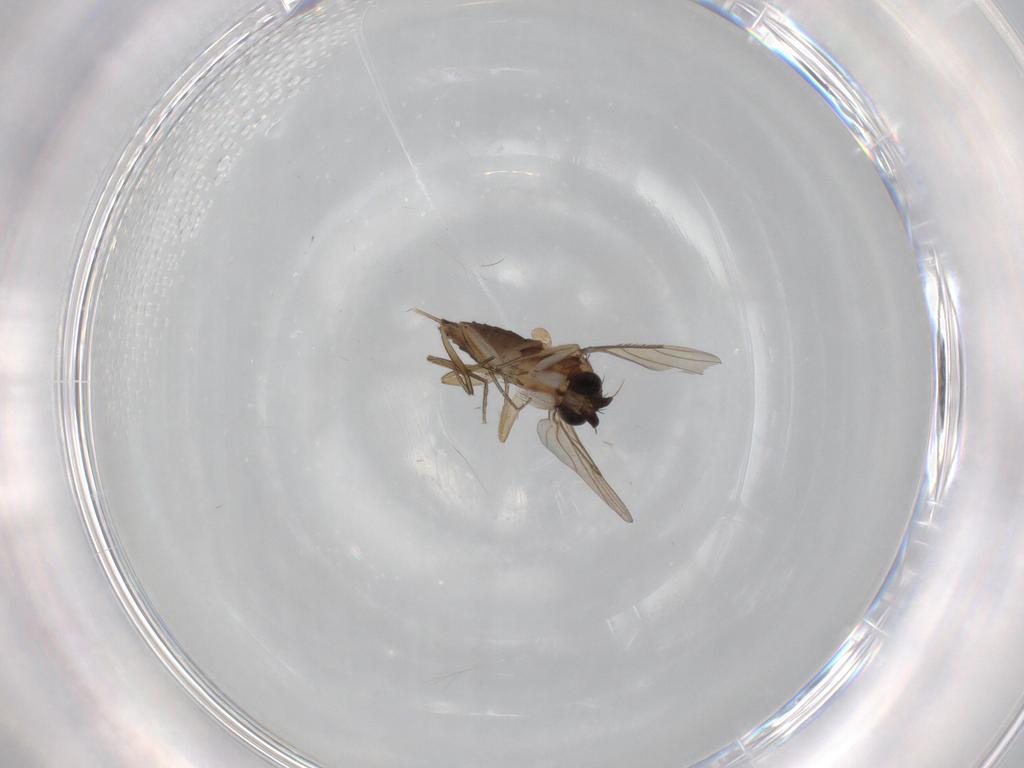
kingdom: Animalia
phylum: Arthropoda
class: Insecta
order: Diptera
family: Phoridae
